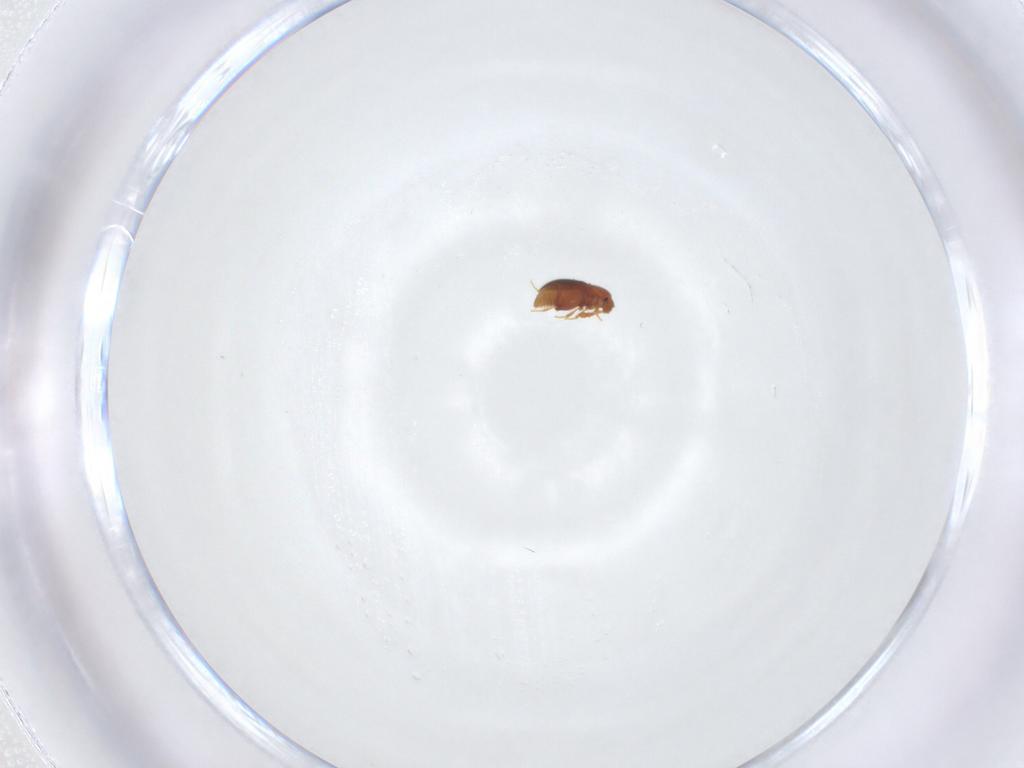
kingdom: Animalia
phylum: Arthropoda
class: Insecta
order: Coleoptera
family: Staphylinidae
